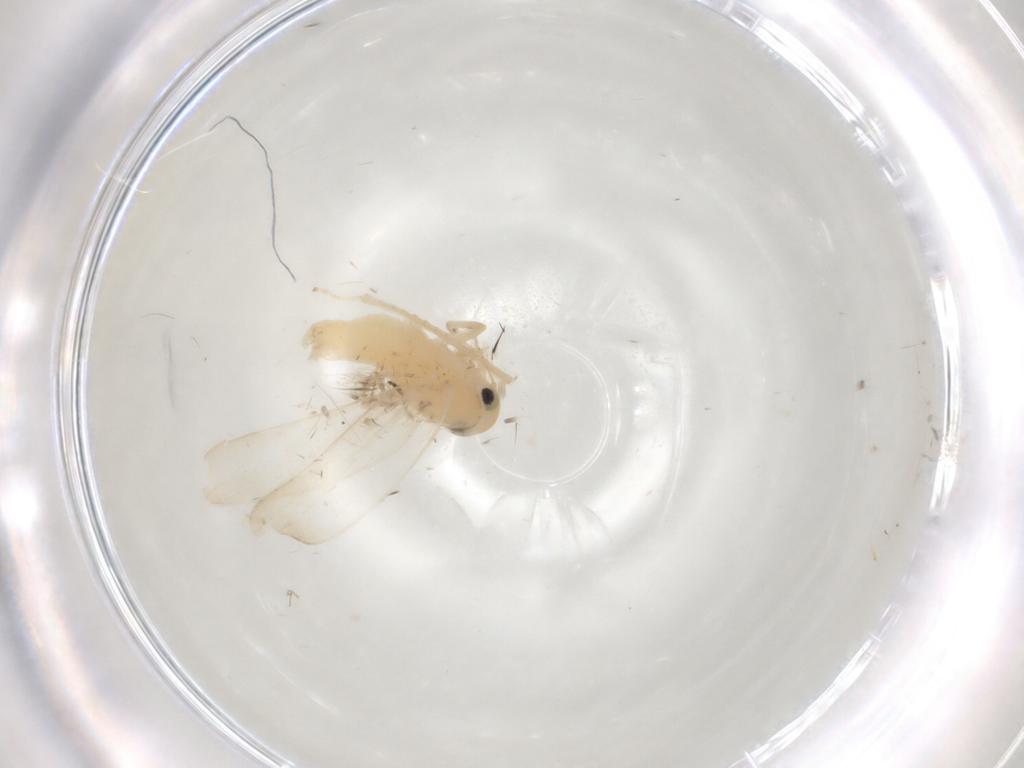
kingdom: Animalia
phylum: Arthropoda
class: Insecta
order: Hemiptera
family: Cicadellidae
